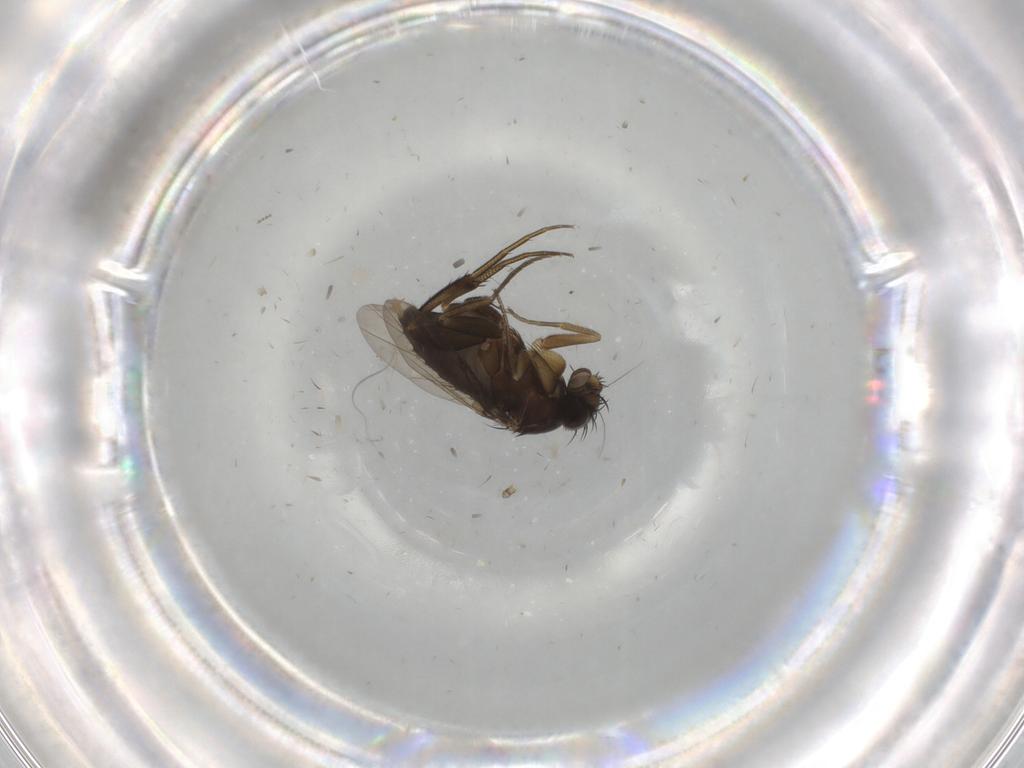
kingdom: Animalia
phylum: Arthropoda
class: Insecta
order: Diptera
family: Phoridae
